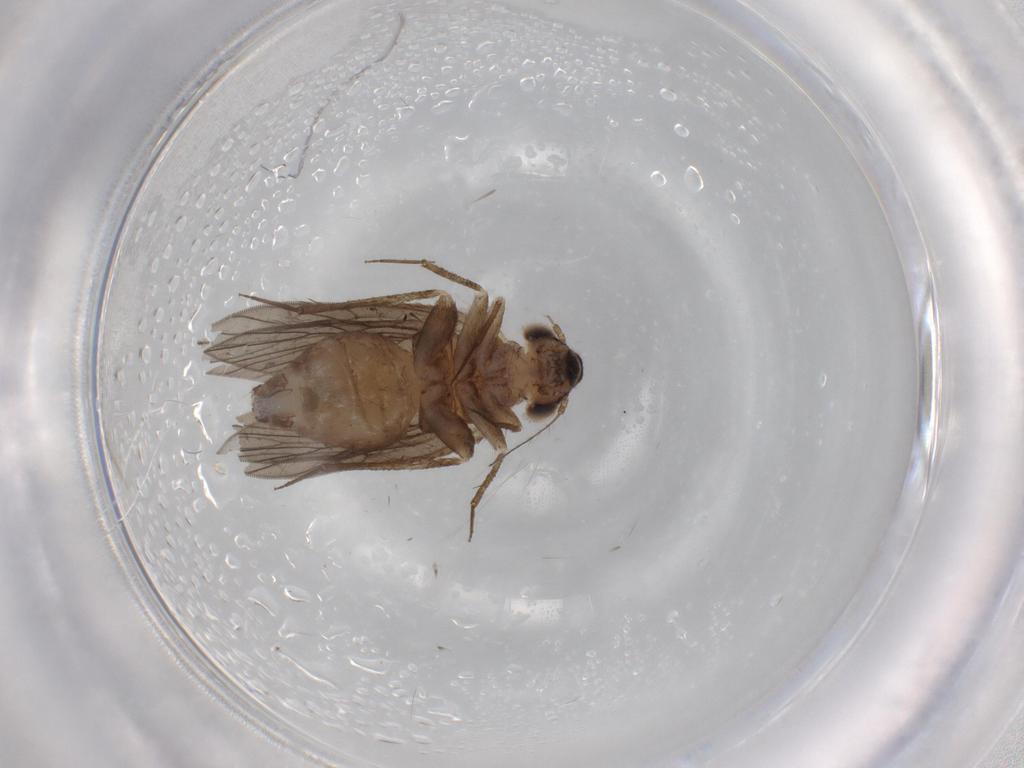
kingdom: Animalia
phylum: Arthropoda
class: Insecta
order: Psocodea
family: Lepidopsocidae
